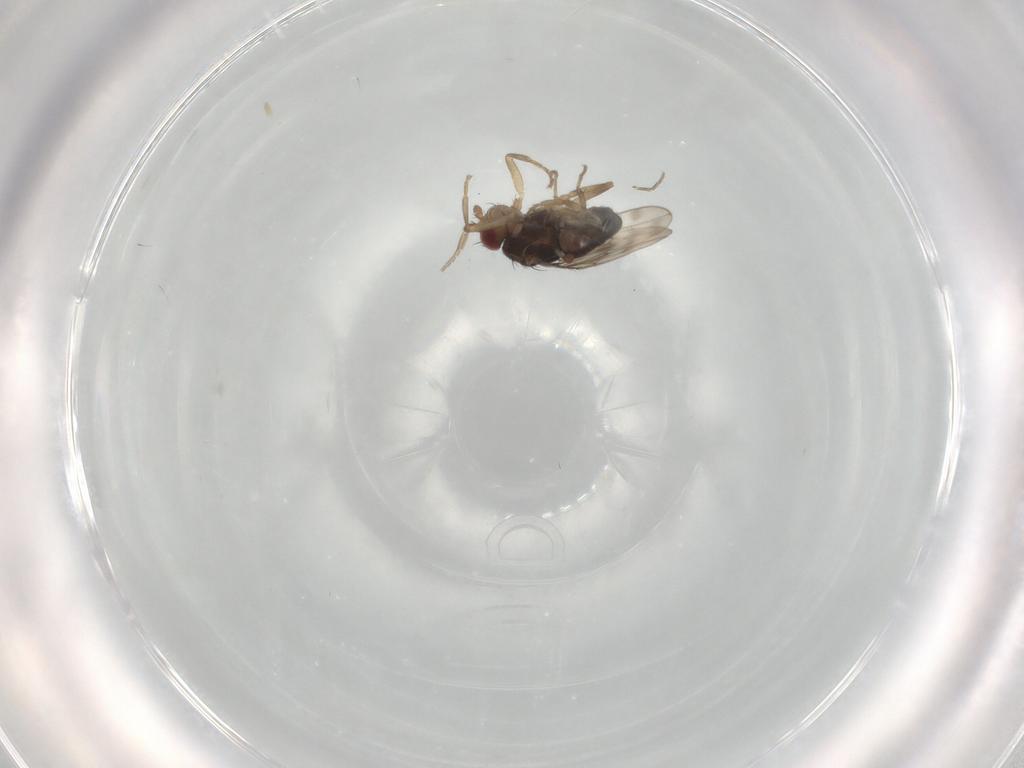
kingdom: Animalia
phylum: Arthropoda
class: Insecta
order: Diptera
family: Sphaeroceridae
